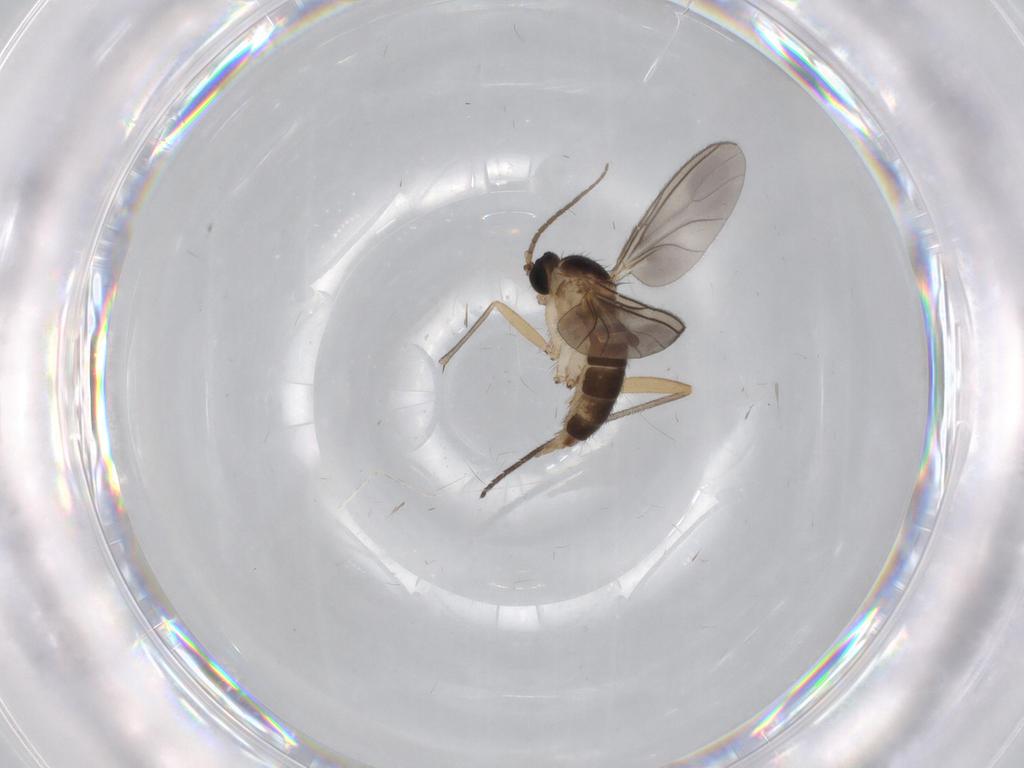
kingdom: Animalia
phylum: Arthropoda
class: Insecta
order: Diptera
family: Sciaridae
